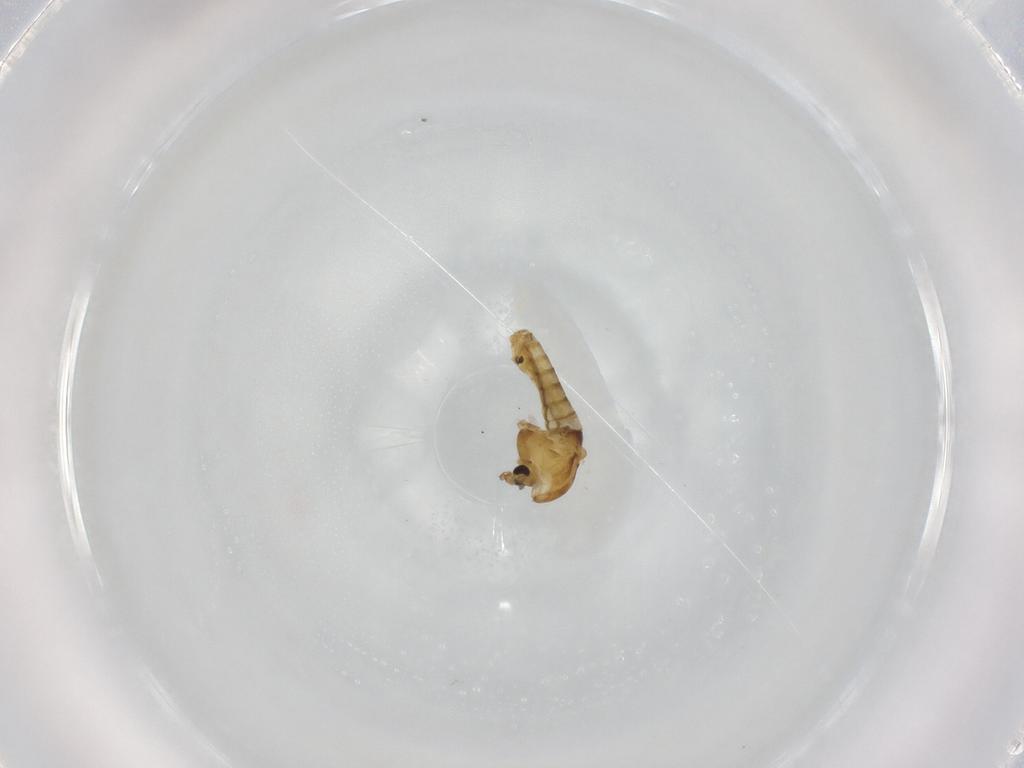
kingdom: Animalia
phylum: Arthropoda
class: Insecta
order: Diptera
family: Chironomidae
